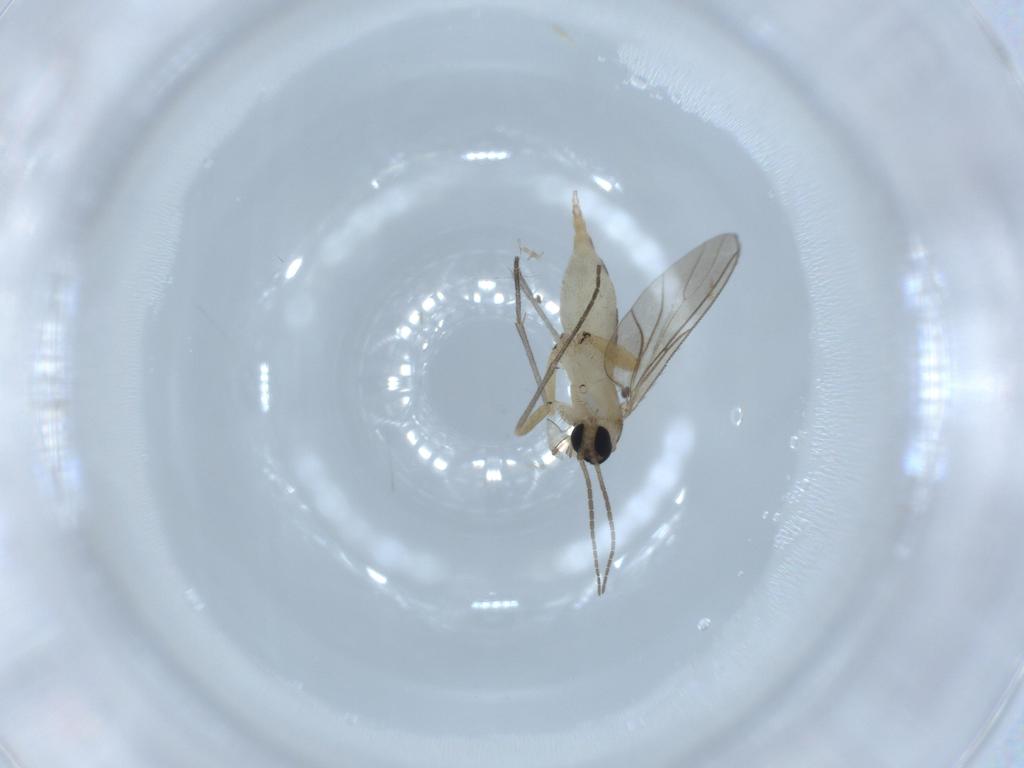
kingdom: Animalia
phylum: Arthropoda
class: Insecta
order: Diptera
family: Sciaridae
